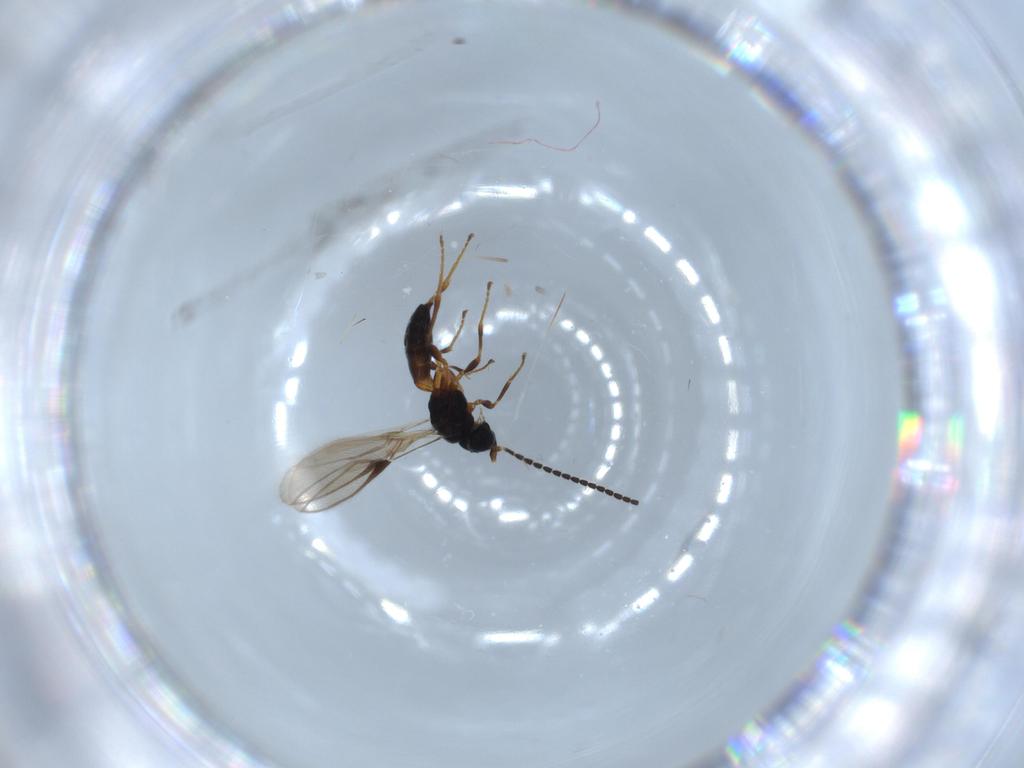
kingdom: Animalia
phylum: Arthropoda
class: Insecta
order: Hymenoptera
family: Braconidae
